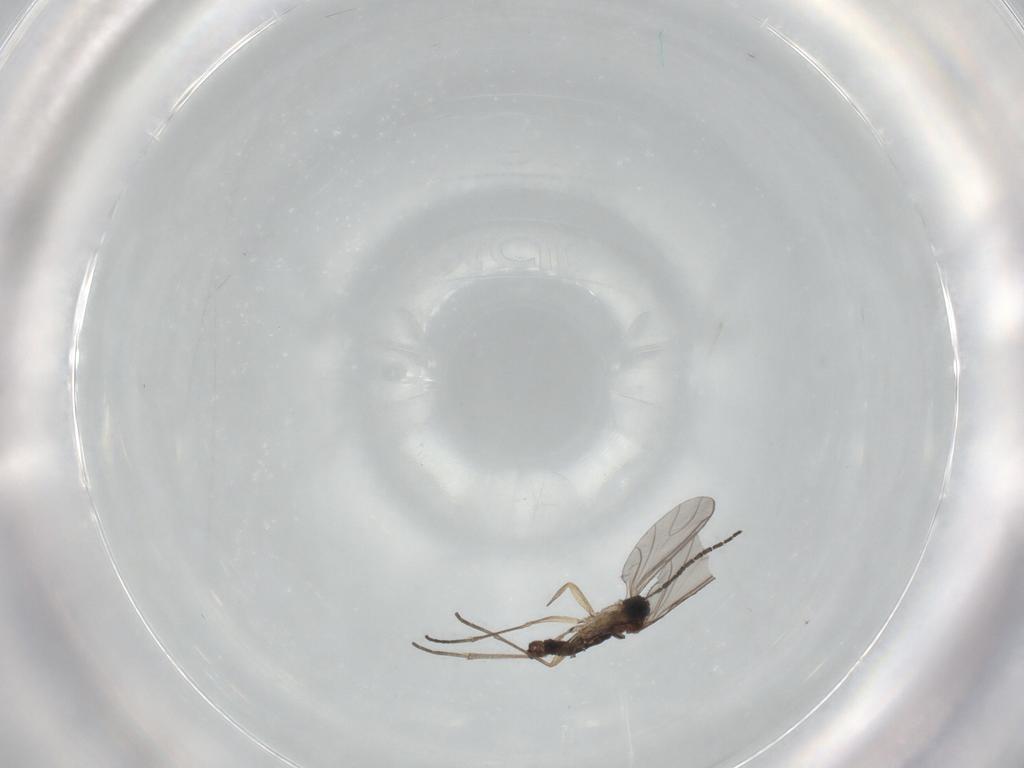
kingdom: Animalia
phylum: Arthropoda
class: Insecta
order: Diptera
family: Sciaridae
